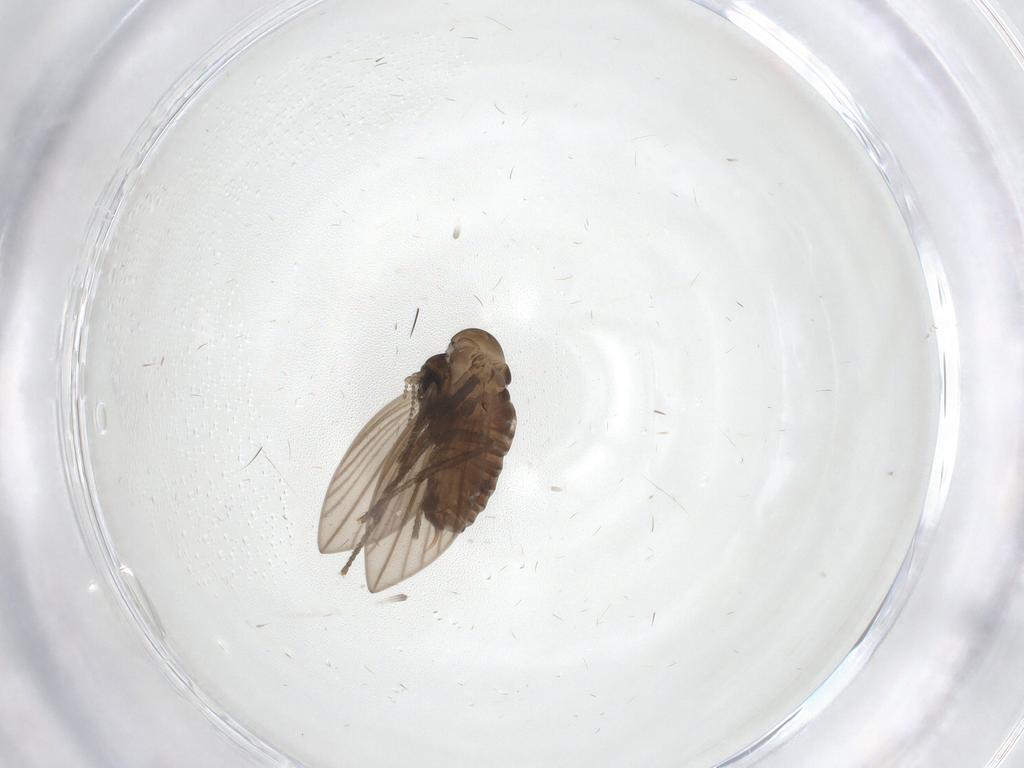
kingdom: Animalia
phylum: Arthropoda
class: Insecta
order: Diptera
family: Psychodidae
